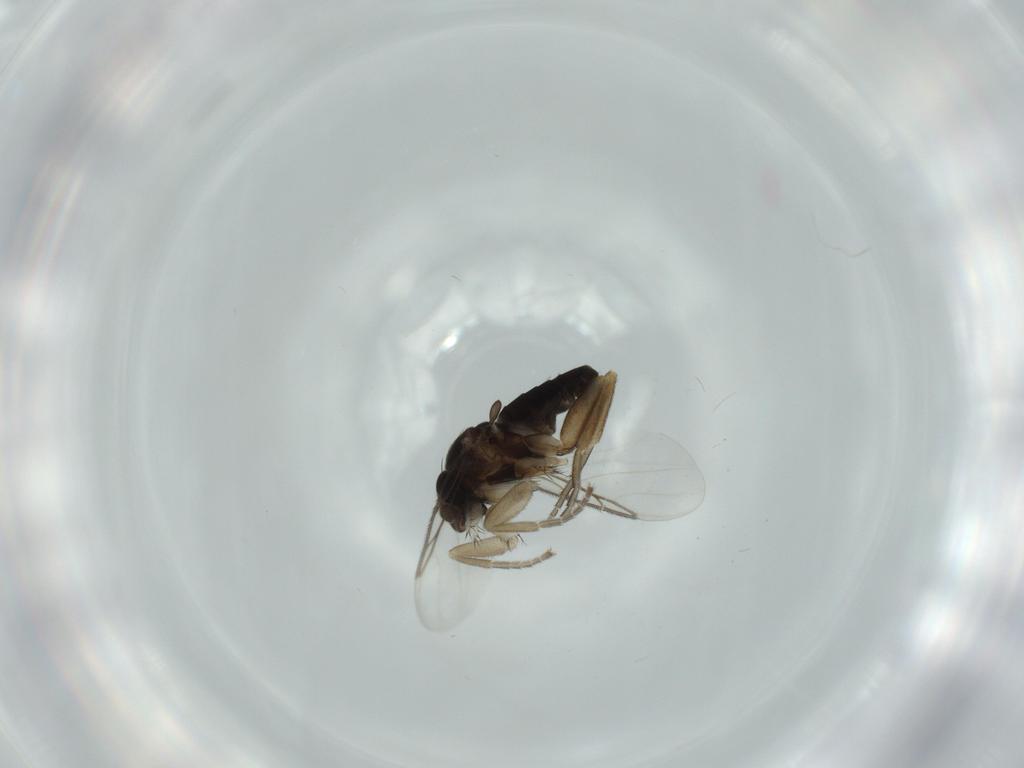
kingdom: Animalia
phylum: Arthropoda
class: Insecta
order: Diptera
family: Phoridae
